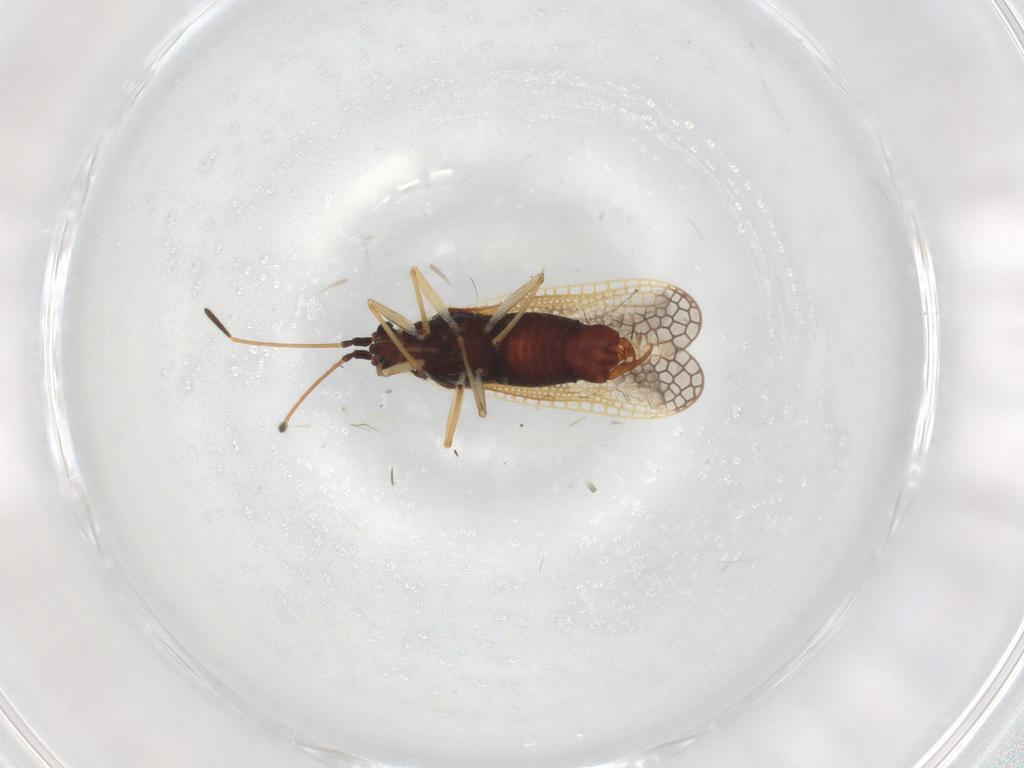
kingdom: Animalia
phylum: Arthropoda
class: Insecta
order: Hemiptera
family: Tingidae
